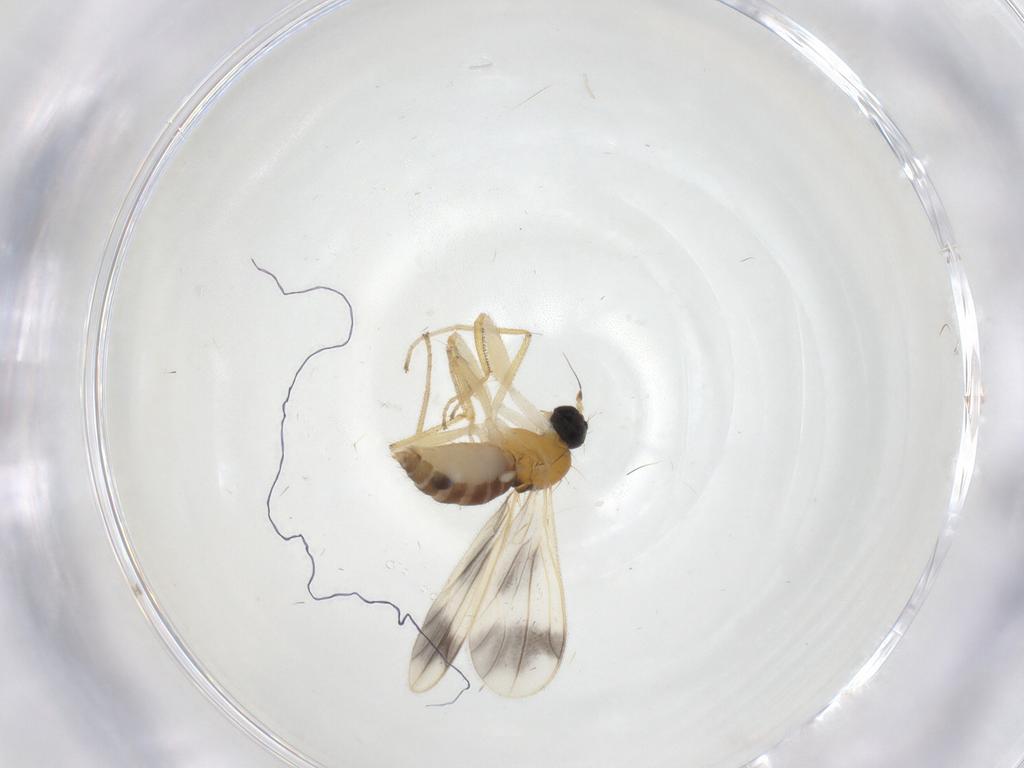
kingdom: Animalia
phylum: Arthropoda
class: Insecta
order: Diptera
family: Empididae
